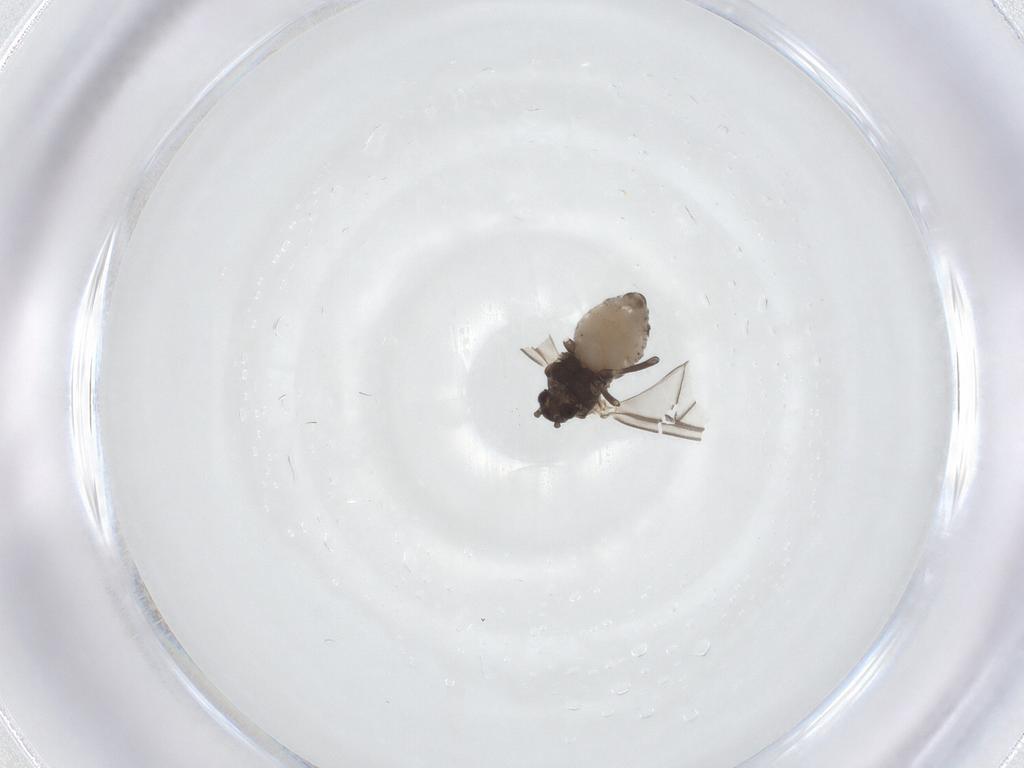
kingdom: Animalia
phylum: Arthropoda
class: Insecta
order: Hemiptera
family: Aphididae
